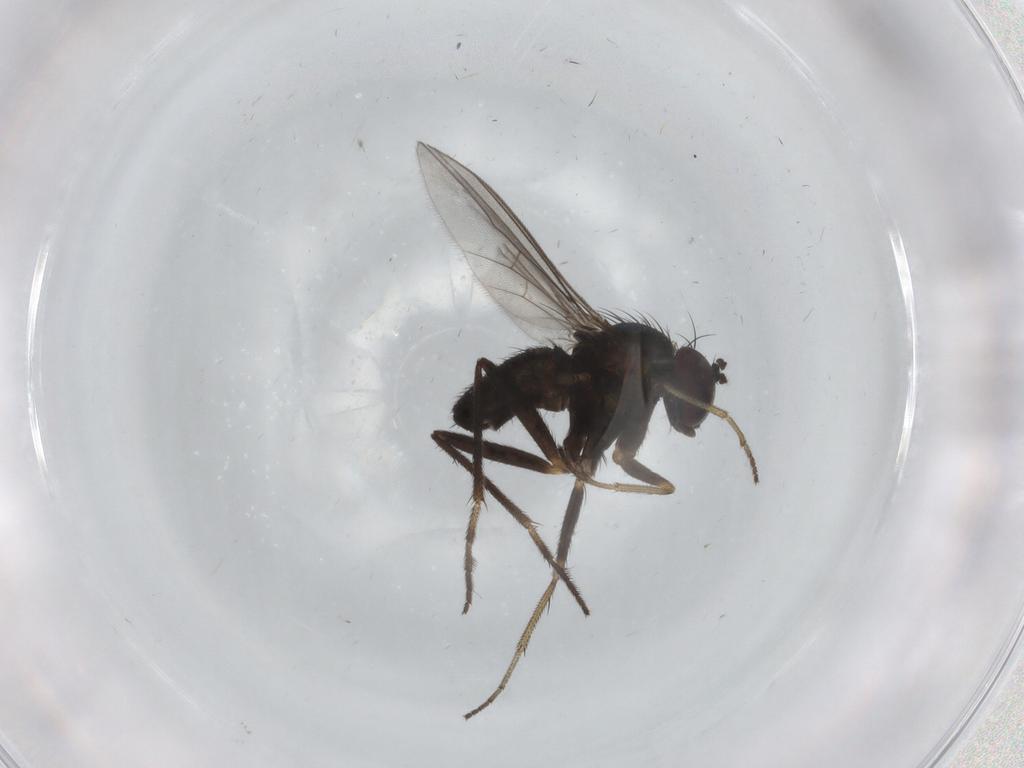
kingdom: Animalia
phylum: Arthropoda
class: Insecta
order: Diptera
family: Dolichopodidae
